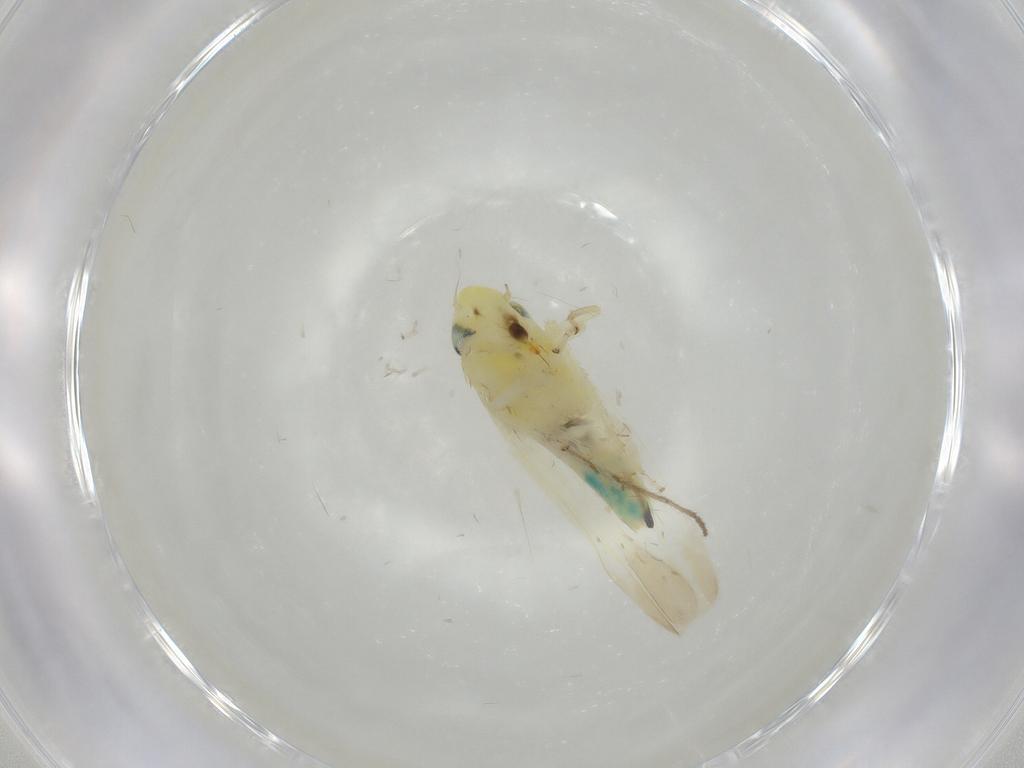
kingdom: Animalia
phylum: Arthropoda
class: Insecta
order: Hemiptera
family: Cicadellidae
